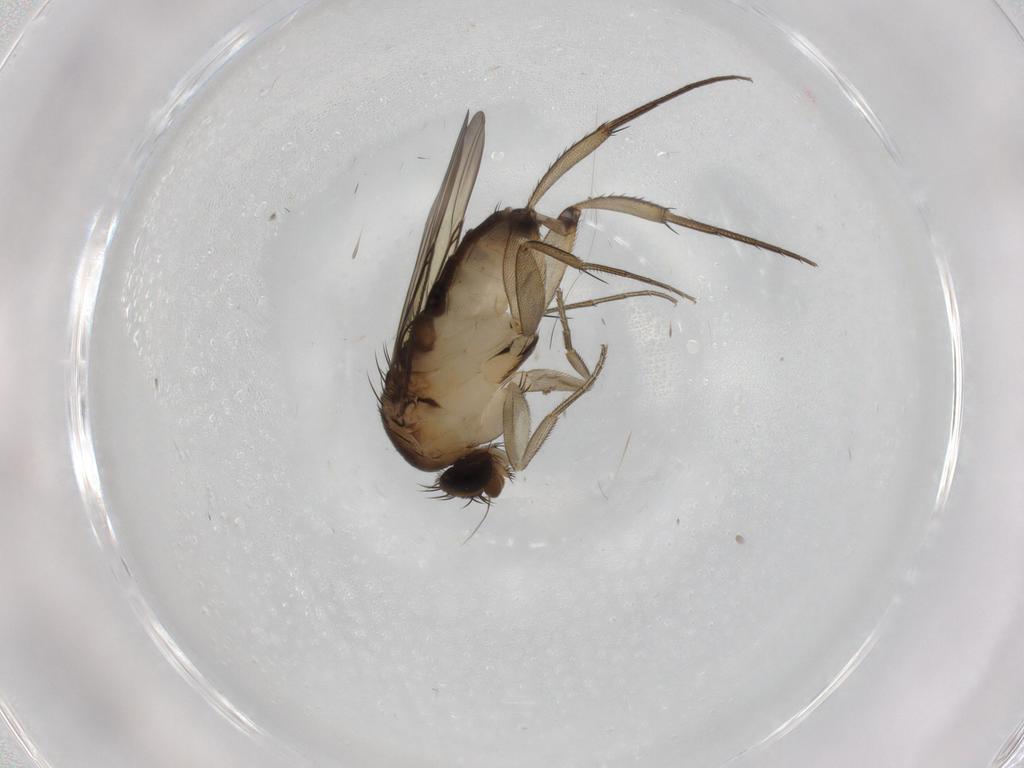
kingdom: Animalia
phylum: Arthropoda
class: Insecta
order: Diptera
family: Phoridae
